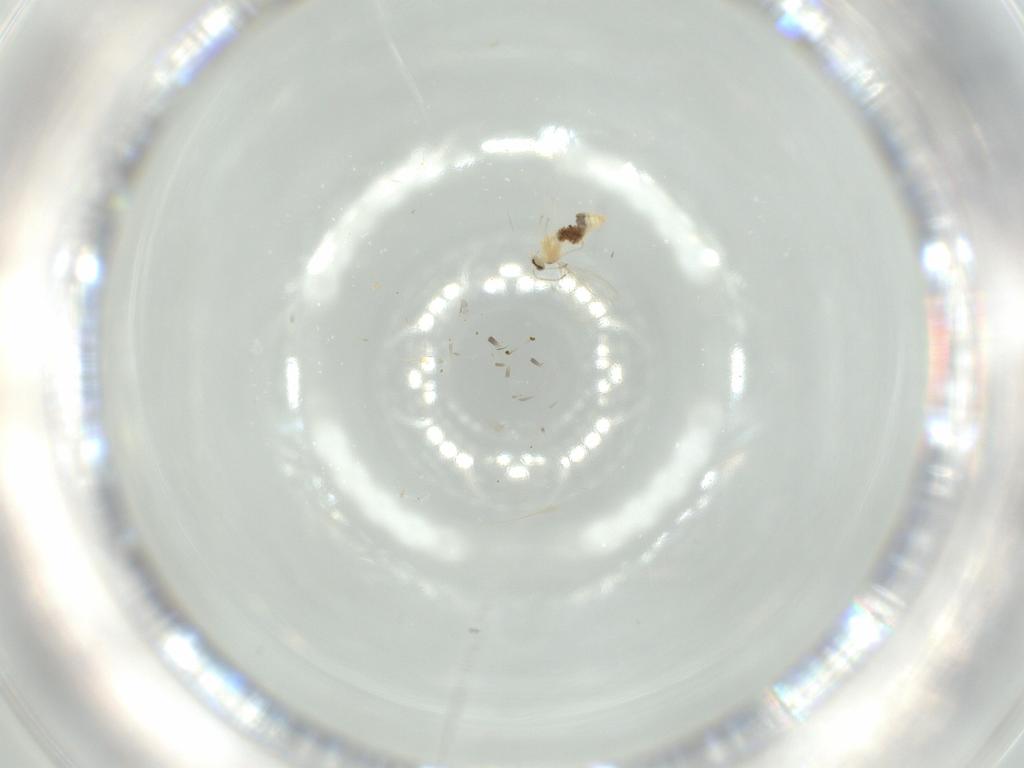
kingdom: Animalia
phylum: Arthropoda
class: Insecta
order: Diptera
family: Cecidomyiidae
